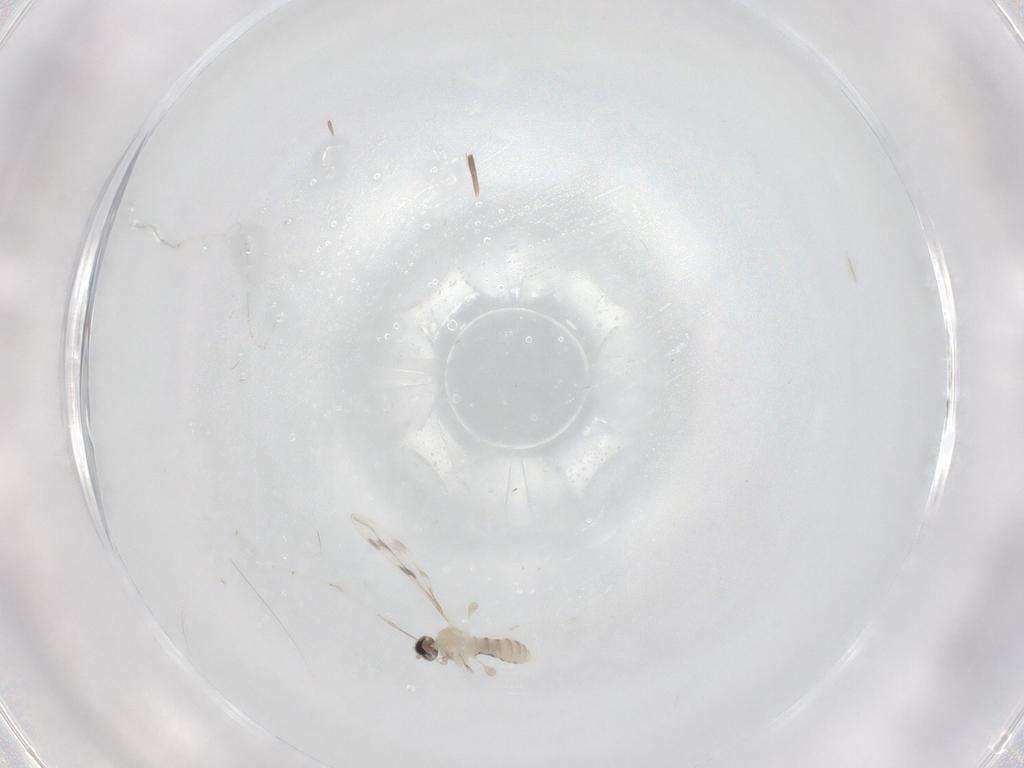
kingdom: Animalia
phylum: Arthropoda
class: Insecta
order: Diptera
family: Chironomidae
